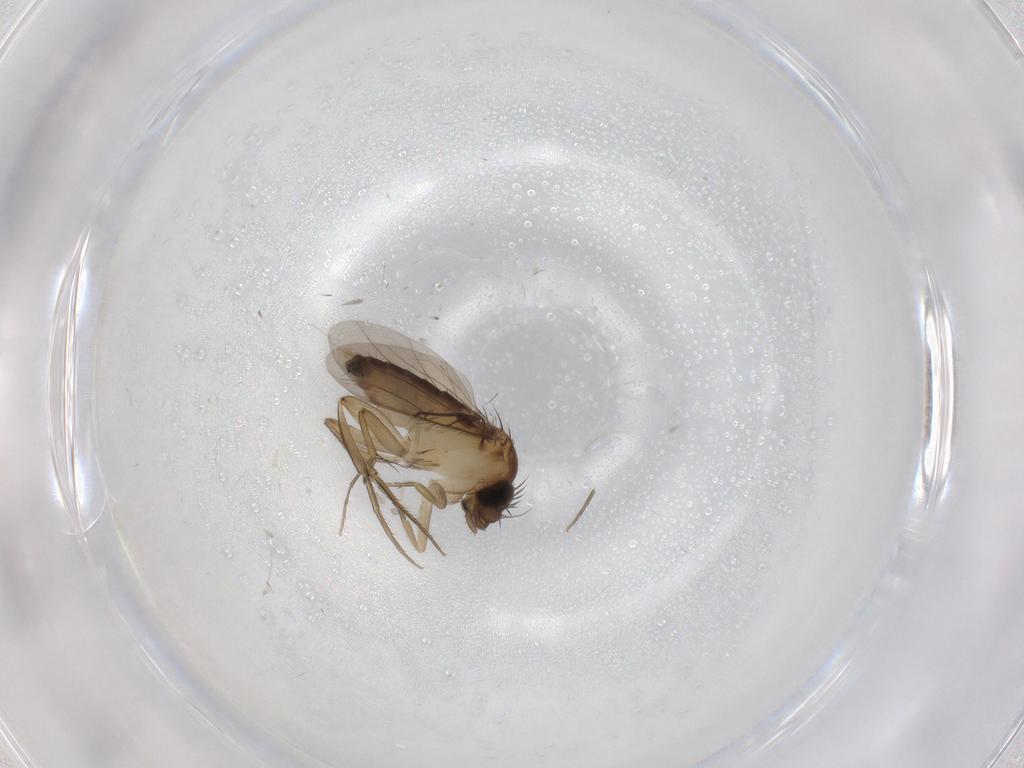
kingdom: Animalia
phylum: Arthropoda
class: Insecta
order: Diptera
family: Phoridae
